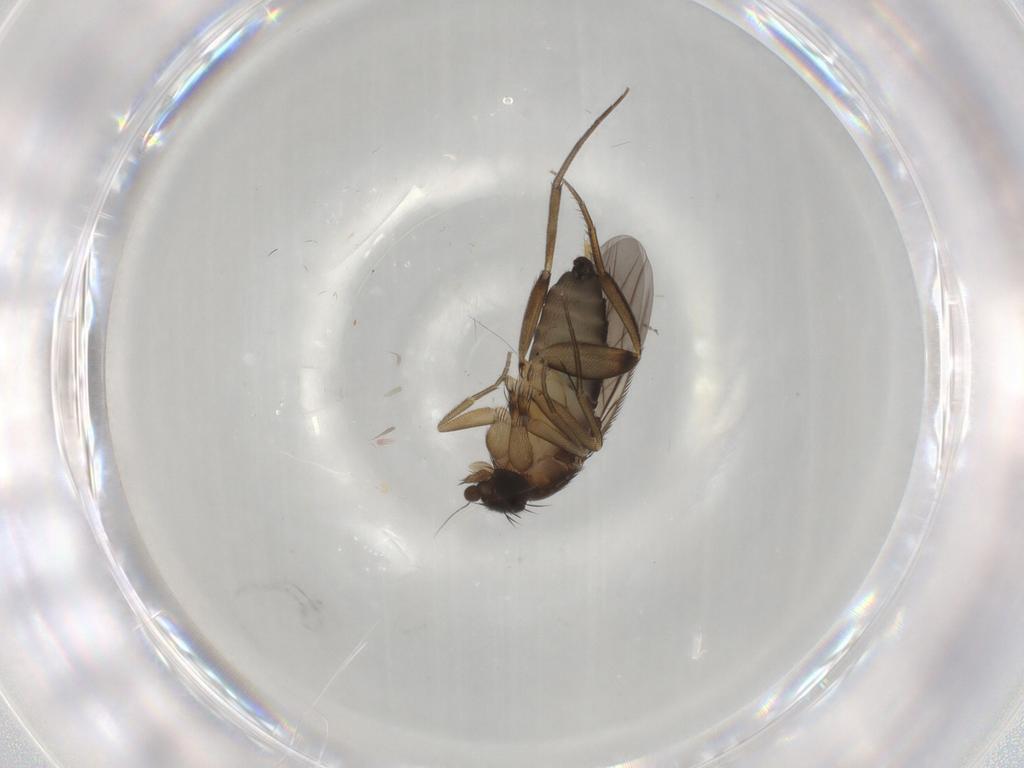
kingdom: Animalia
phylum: Arthropoda
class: Insecta
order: Diptera
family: Phoridae
